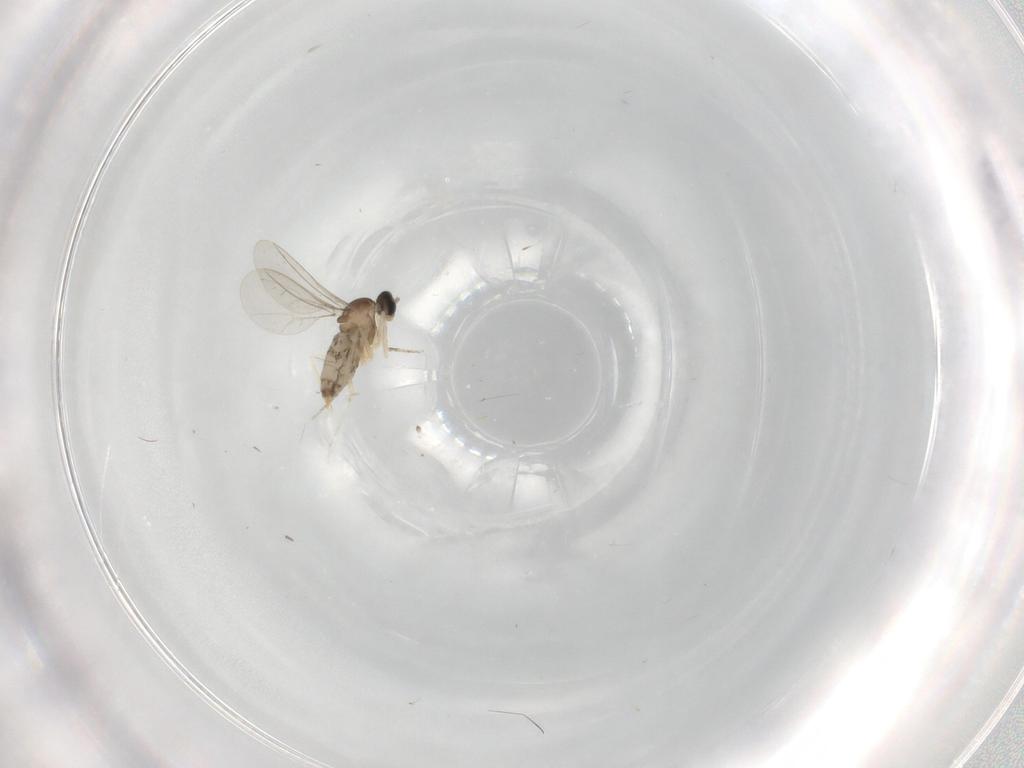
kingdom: Animalia
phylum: Arthropoda
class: Insecta
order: Diptera
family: Cecidomyiidae
